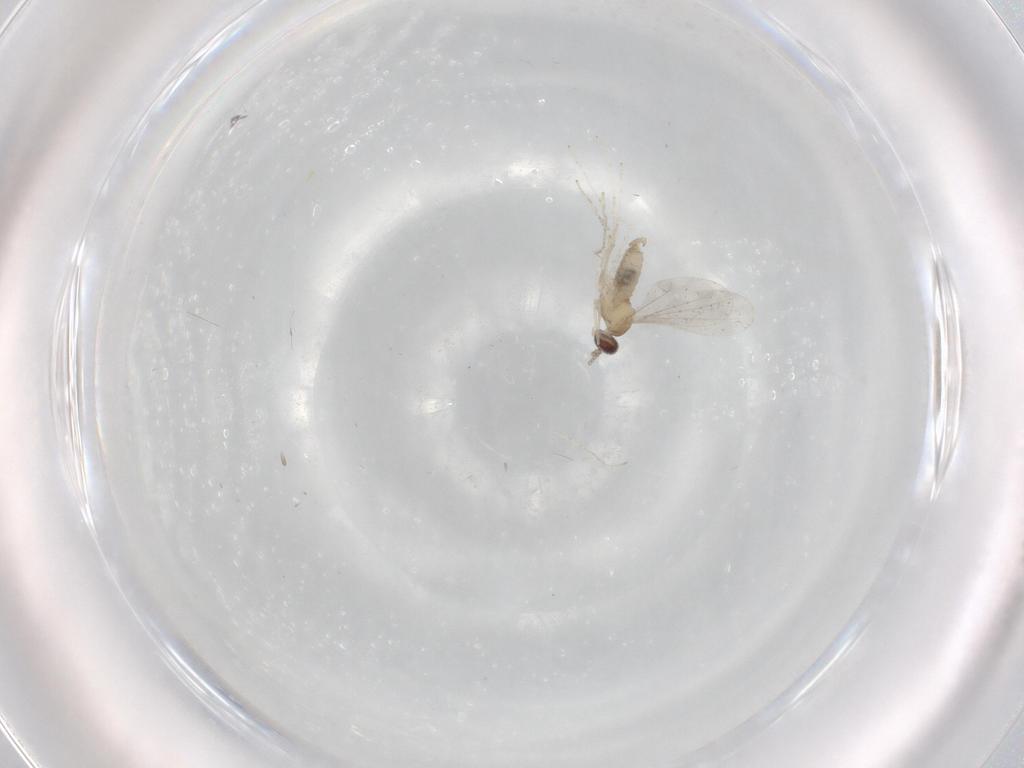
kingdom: Animalia
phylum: Arthropoda
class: Insecta
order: Diptera
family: Cecidomyiidae
